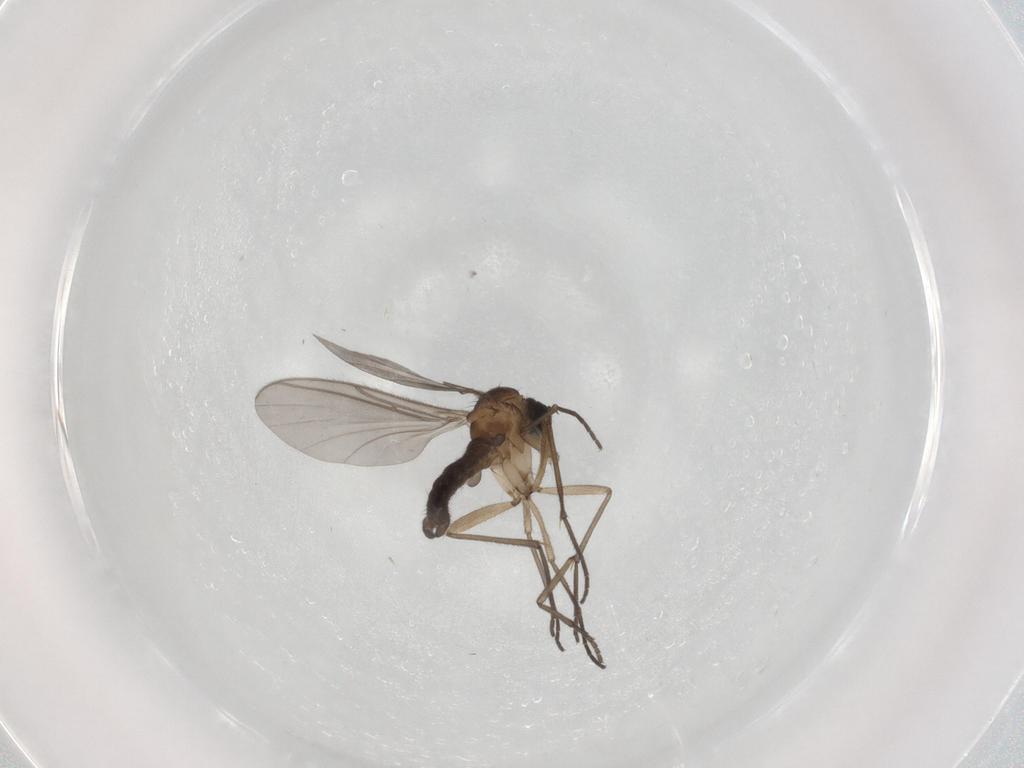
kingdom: Animalia
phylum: Arthropoda
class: Insecta
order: Diptera
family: Sciaridae
